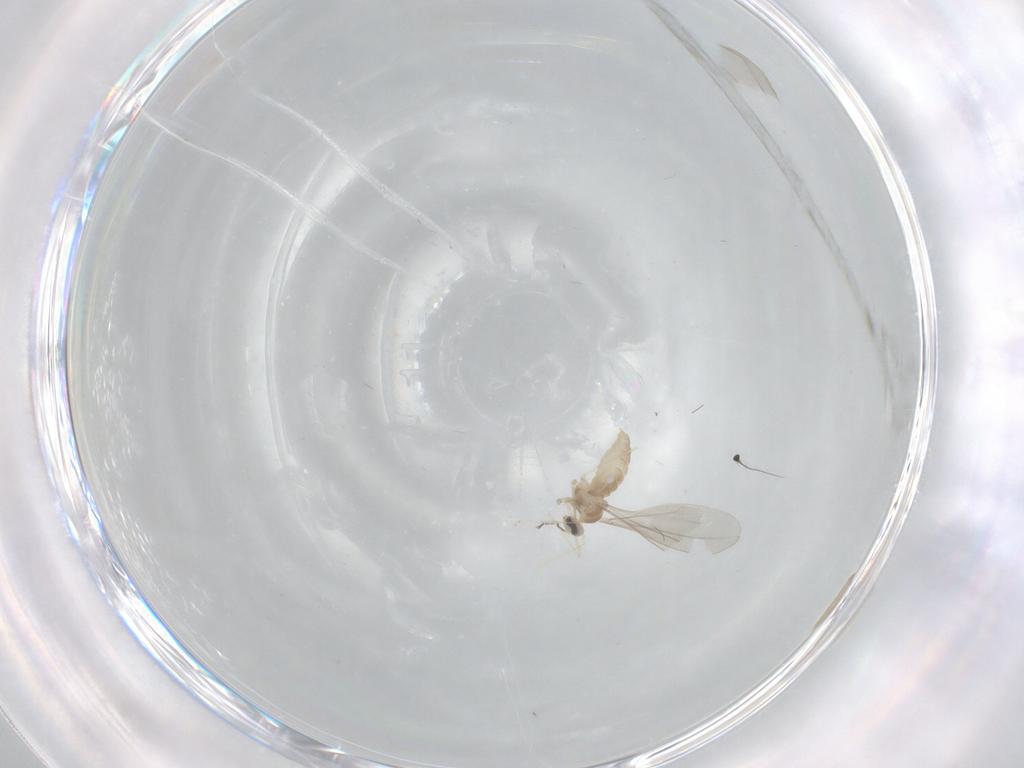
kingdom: Animalia
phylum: Arthropoda
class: Insecta
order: Diptera
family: Cecidomyiidae
